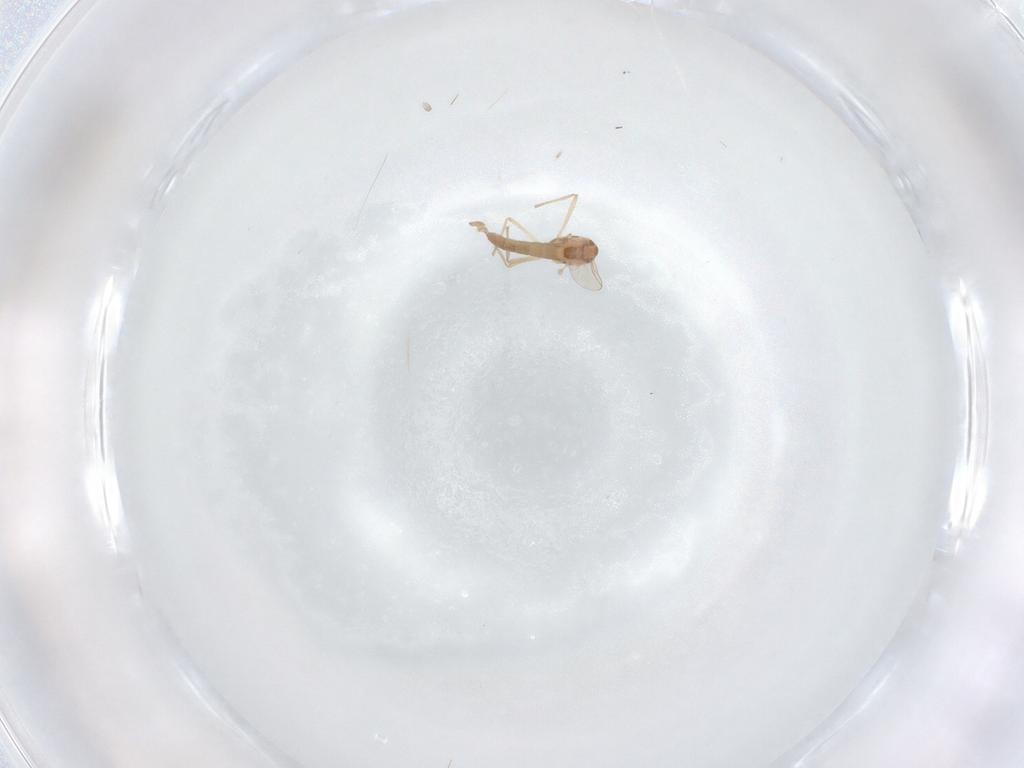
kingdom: Animalia
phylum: Arthropoda
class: Insecta
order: Diptera
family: Chironomidae
